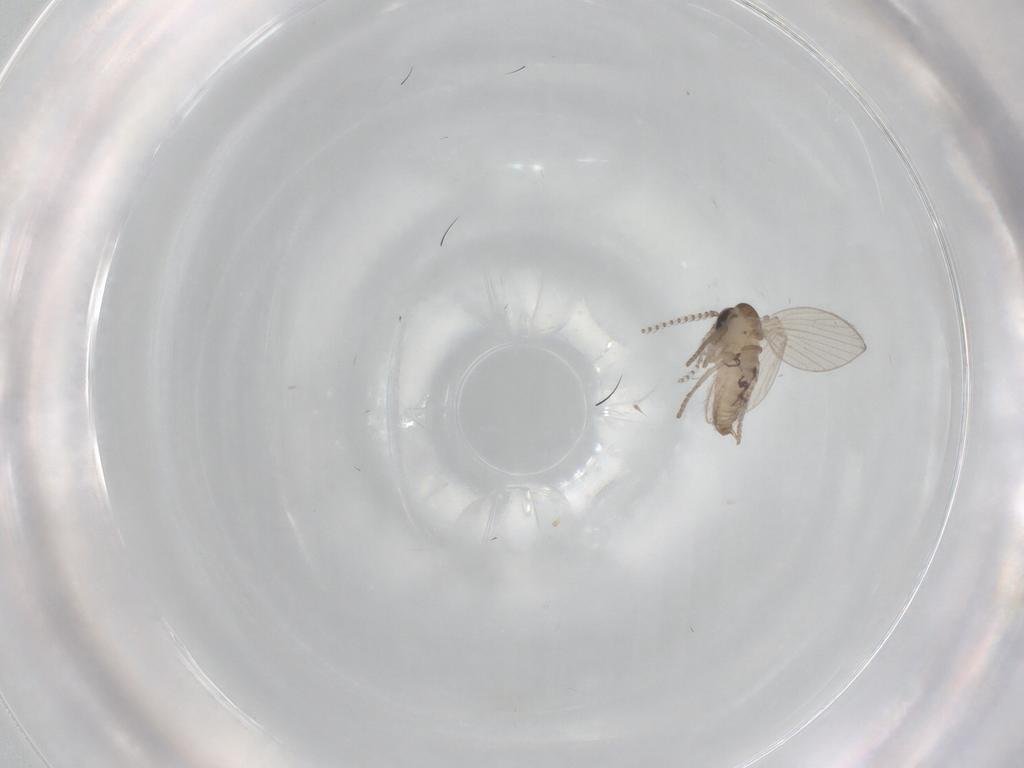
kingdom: Animalia
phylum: Arthropoda
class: Insecta
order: Diptera
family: Psychodidae
